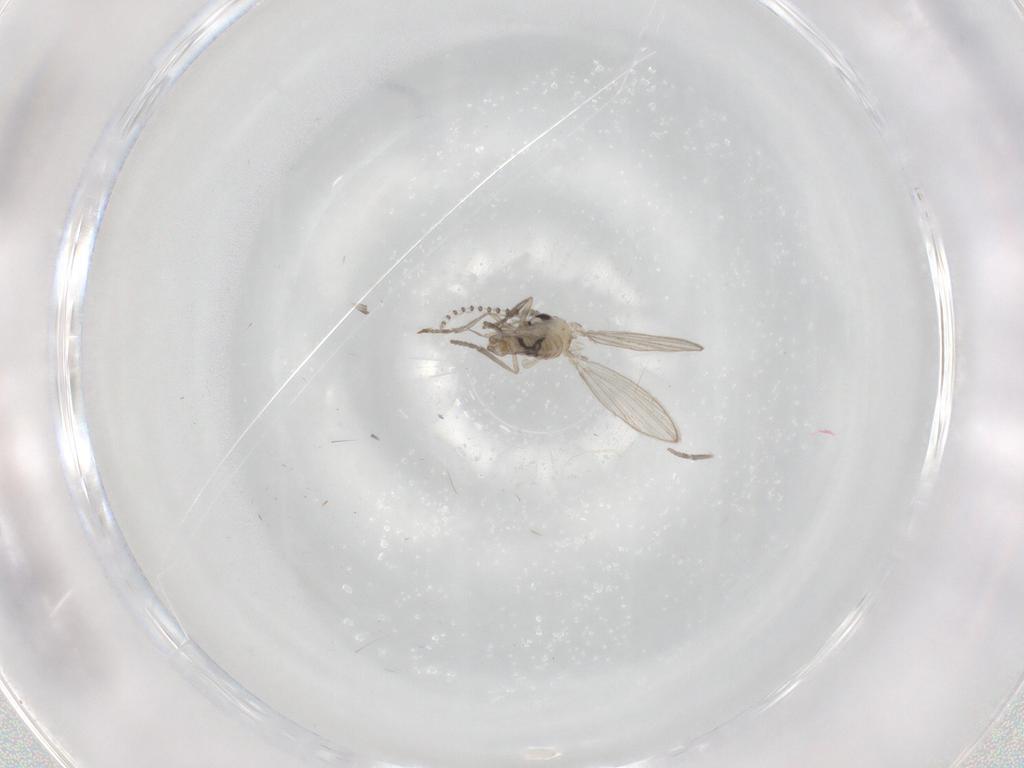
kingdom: Animalia
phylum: Arthropoda
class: Insecta
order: Diptera
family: Psychodidae
